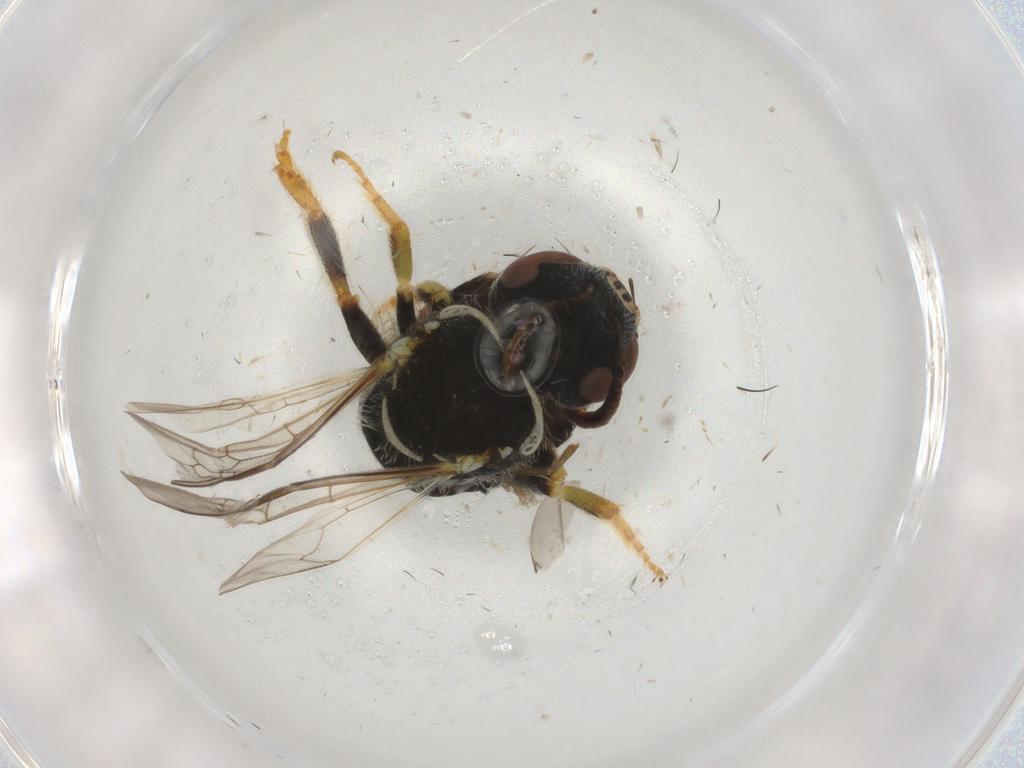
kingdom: Animalia
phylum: Arthropoda
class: Insecta
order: Hymenoptera
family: Halictidae
